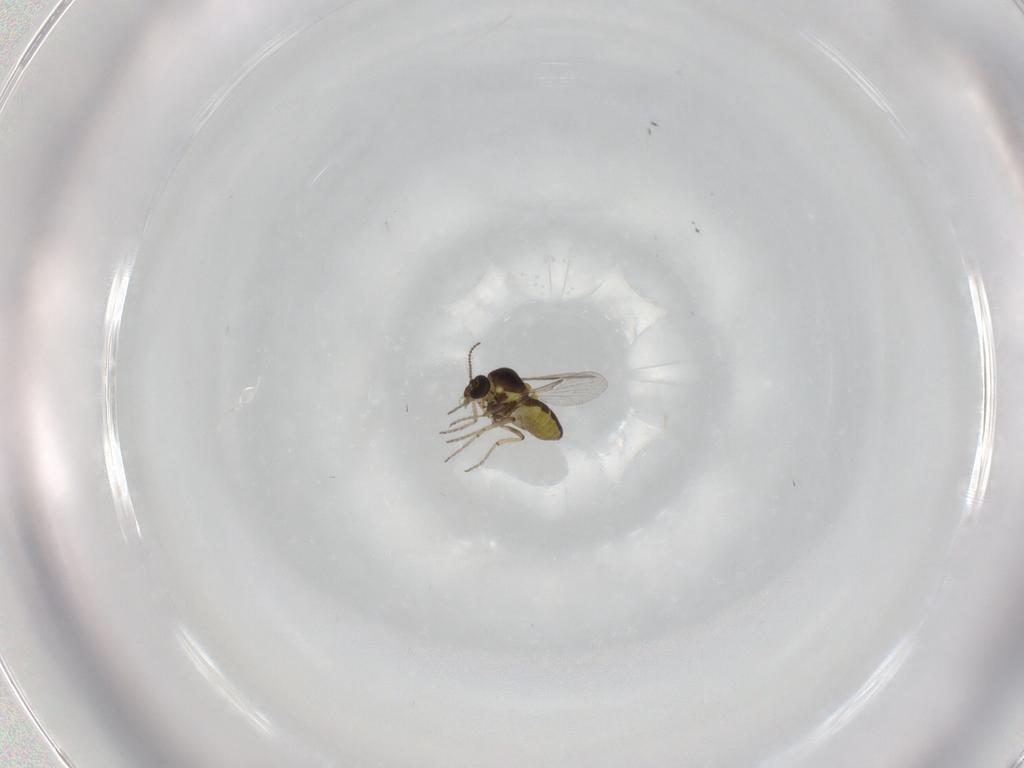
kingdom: Animalia
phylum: Arthropoda
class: Insecta
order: Diptera
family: Ceratopogonidae
